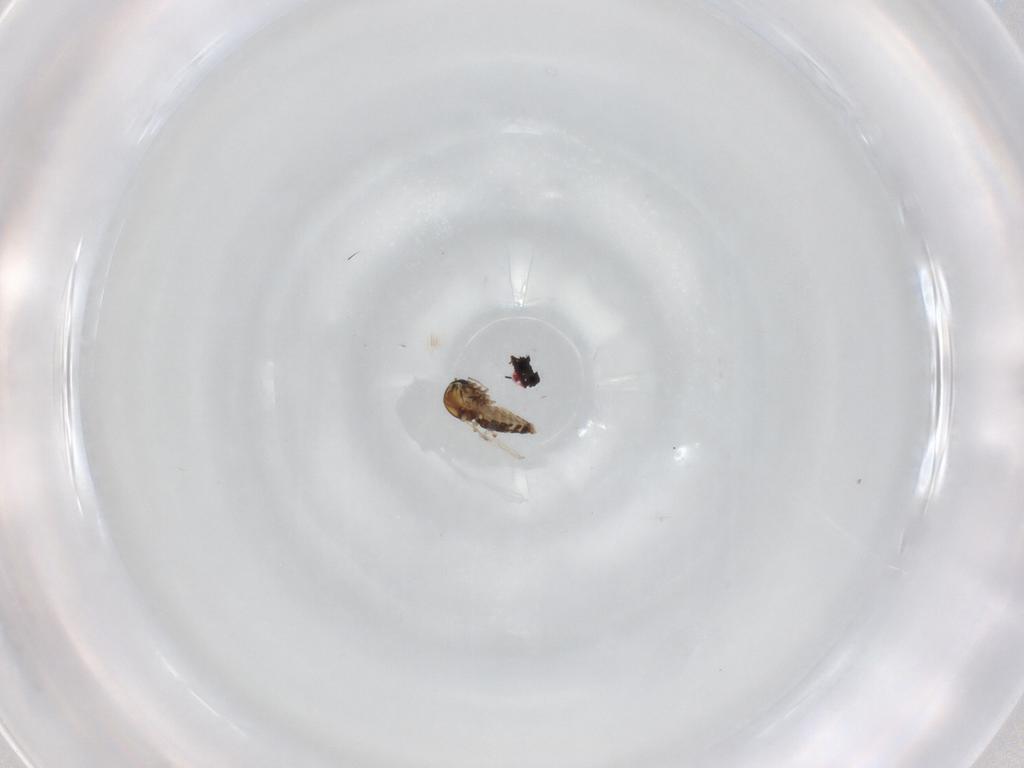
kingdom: Animalia
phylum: Arthropoda
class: Insecta
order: Diptera
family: Muscidae
